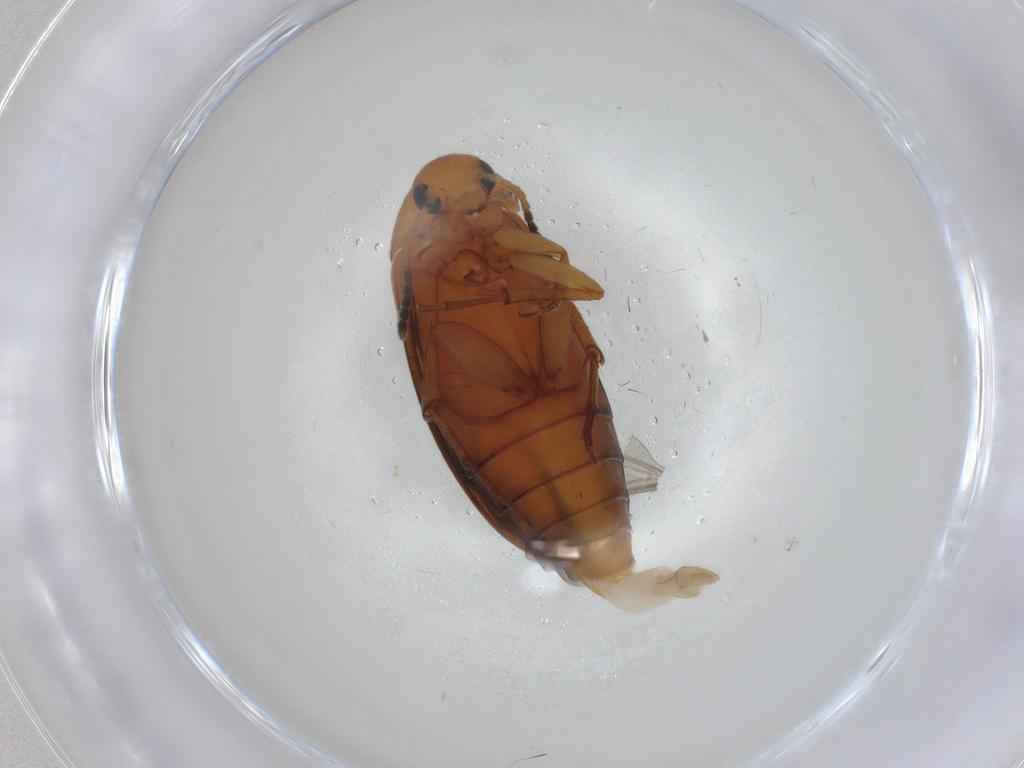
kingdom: Animalia
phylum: Arthropoda
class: Insecta
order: Coleoptera
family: Scraptiidae
